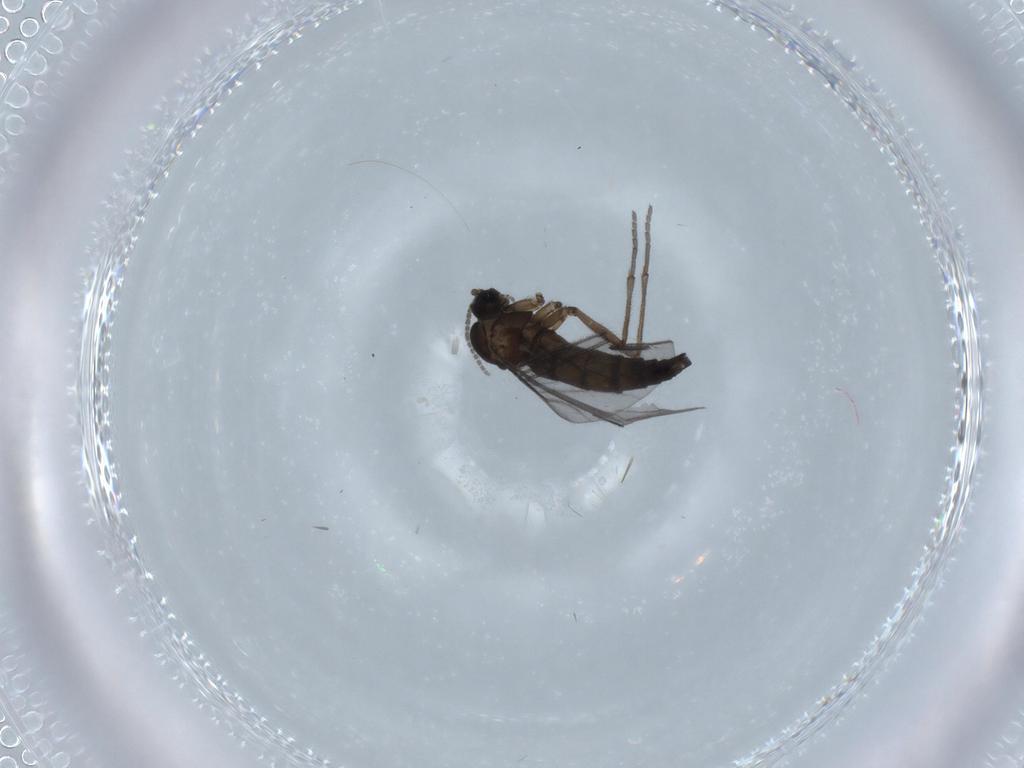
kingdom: Animalia
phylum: Arthropoda
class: Insecta
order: Diptera
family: Sciaridae
